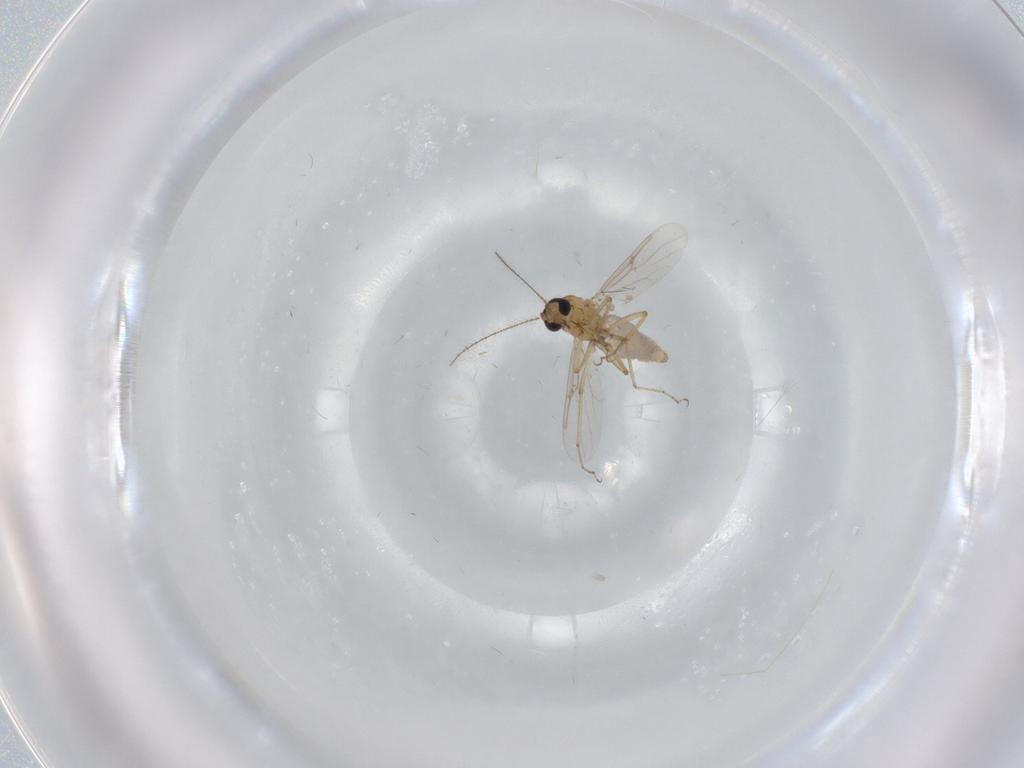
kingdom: Animalia
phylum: Arthropoda
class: Insecta
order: Diptera
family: Ceratopogonidae
